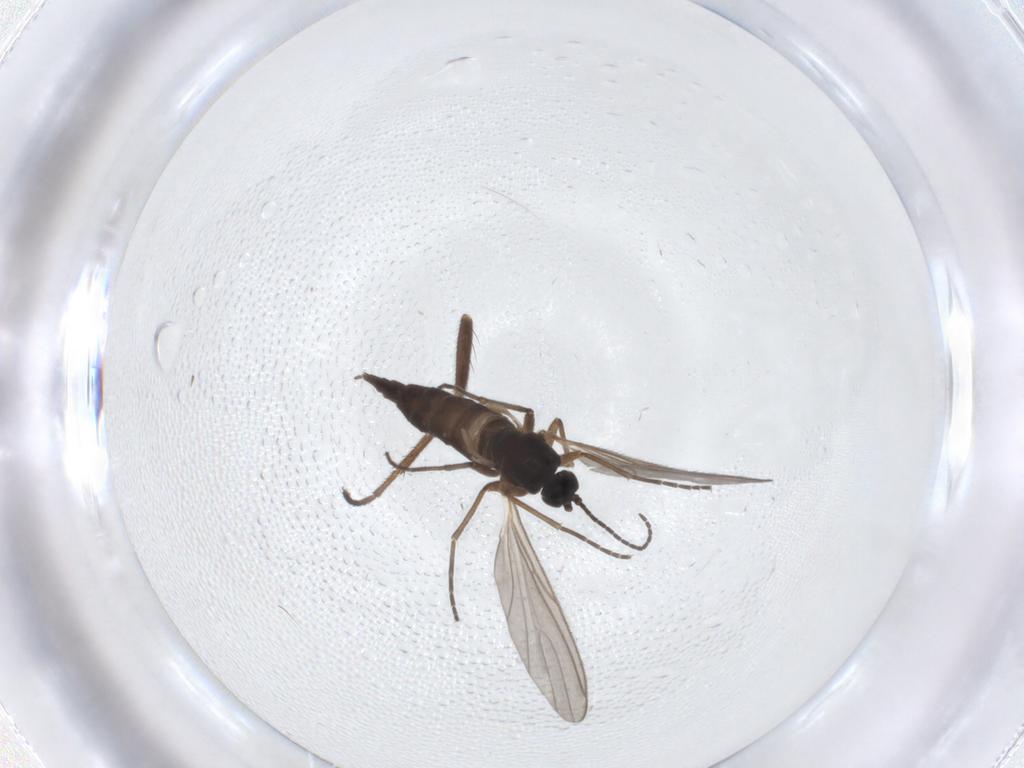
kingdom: Animalia
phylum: Arthropoda
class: Insecta
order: Diptera
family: Sciaridae
